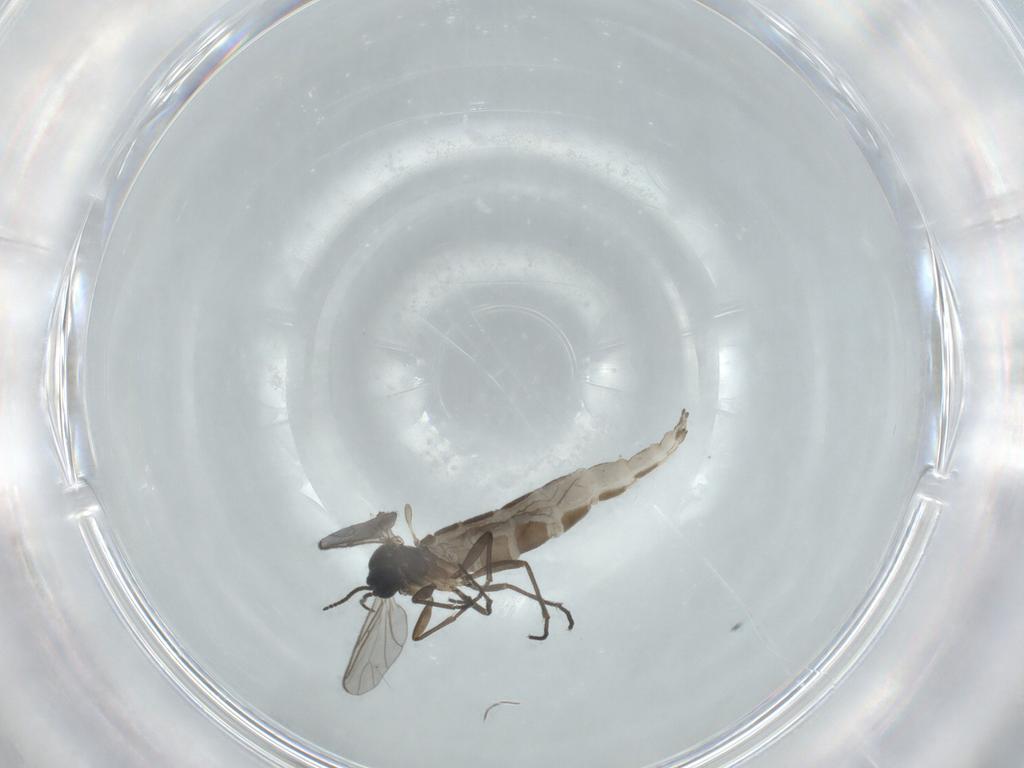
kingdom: Animalia
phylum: Arthropoda
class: Insecta
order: Diptera
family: Sciaridae
